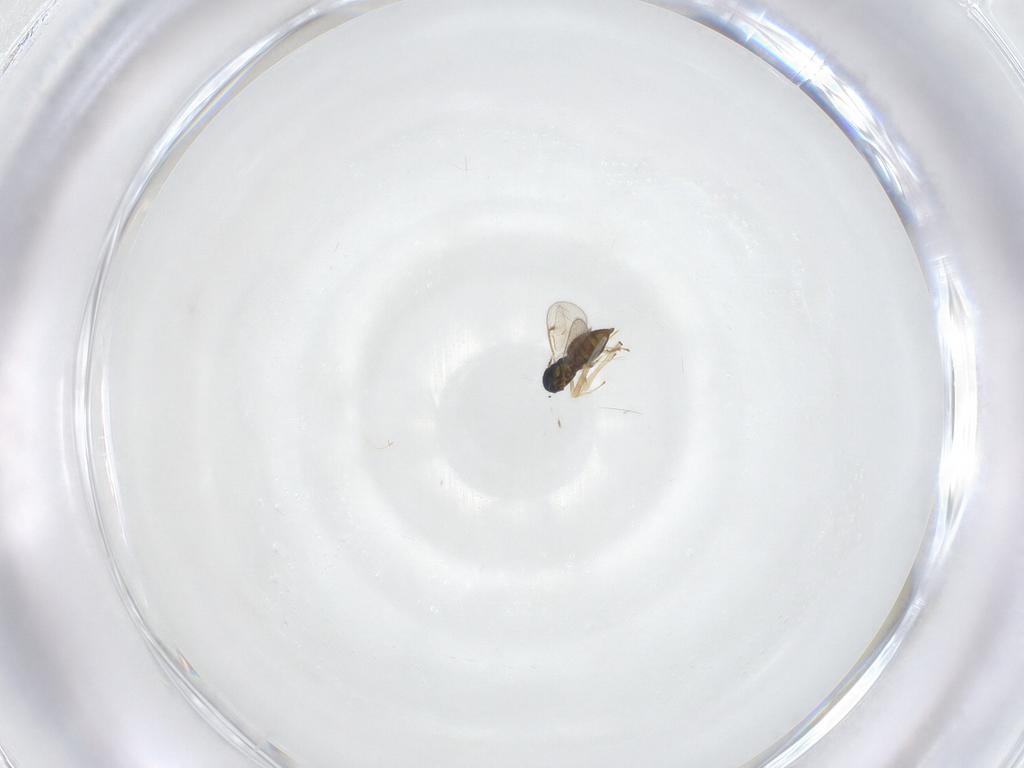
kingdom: Animalia
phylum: Arthropoda
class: Insecta
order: Hymenoptera
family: Eulophidae
